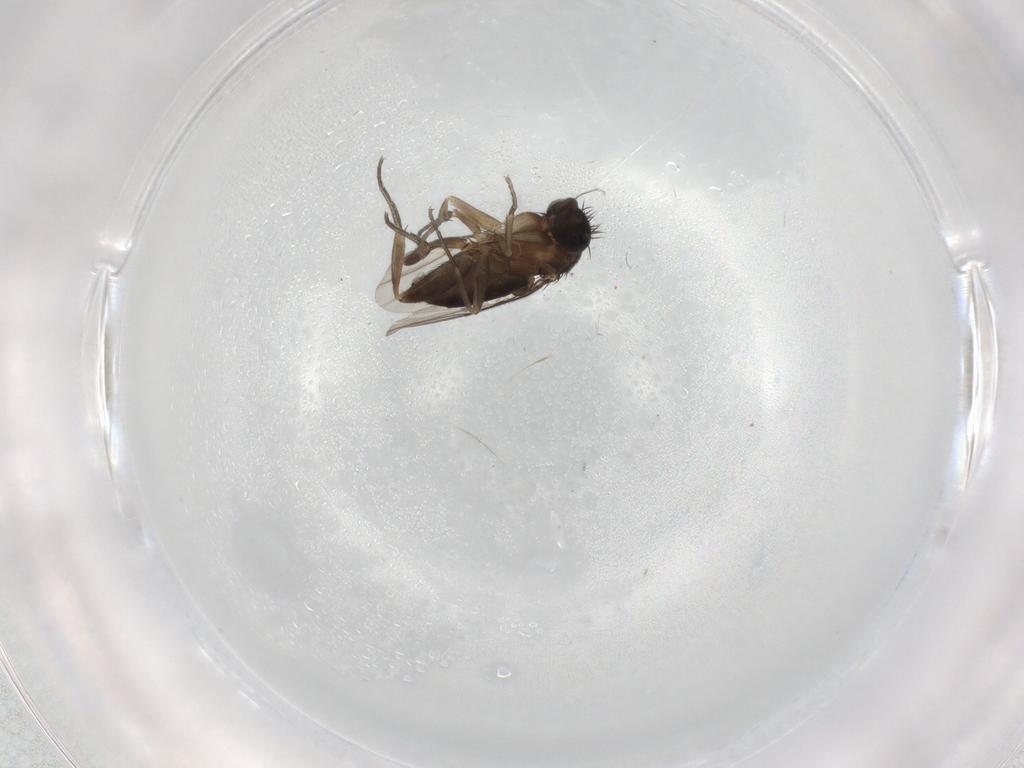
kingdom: Animalia
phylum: Arthropoda
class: Insecta
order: Diptera
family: Phoridae
